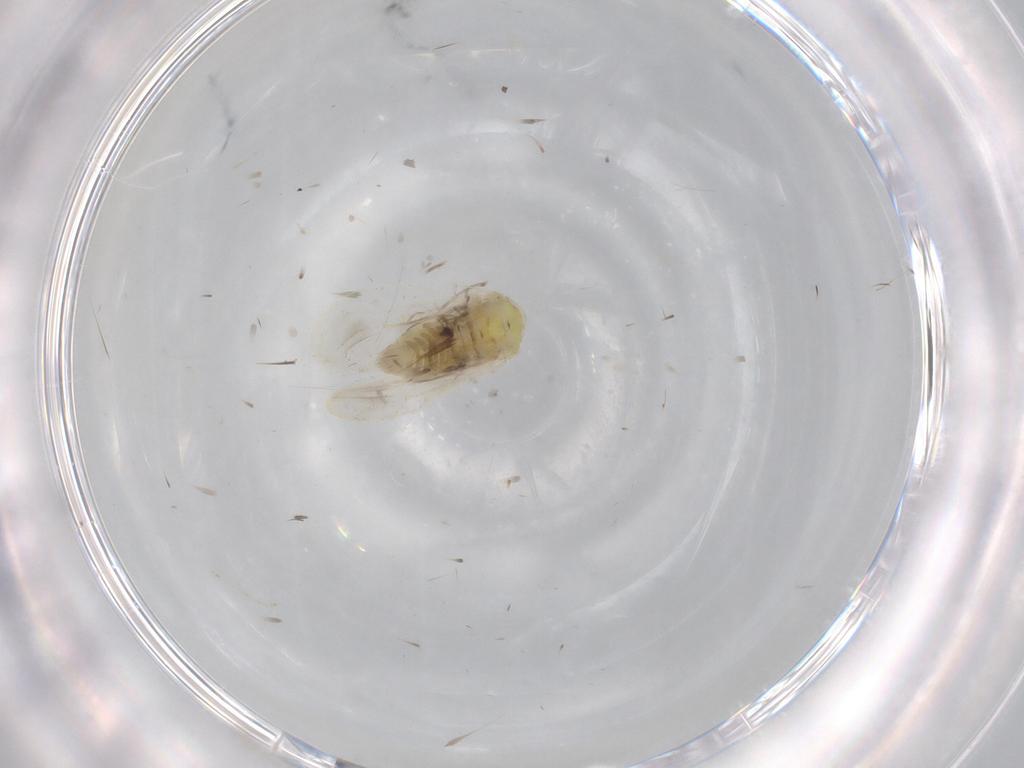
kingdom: Animalia
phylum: Arthropoda
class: Insecta
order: Hemiptera
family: Aleyrodidae
